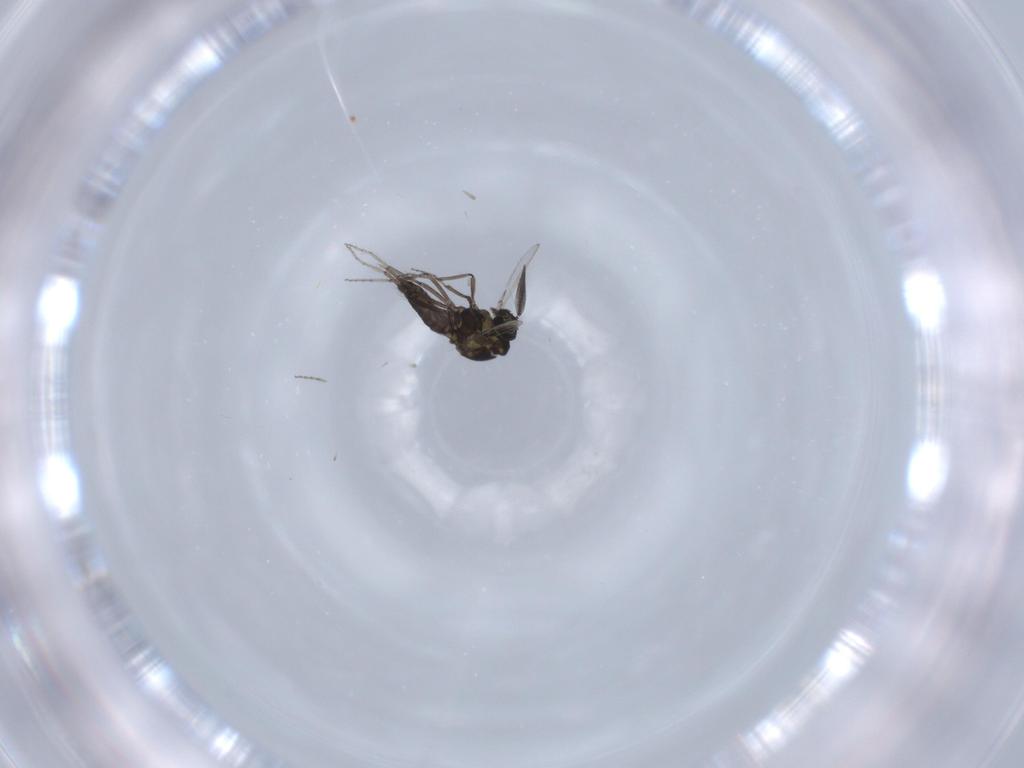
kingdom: Animalia
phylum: Arthropoda
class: Insecta
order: Diptera
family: Ceratopogonidae
